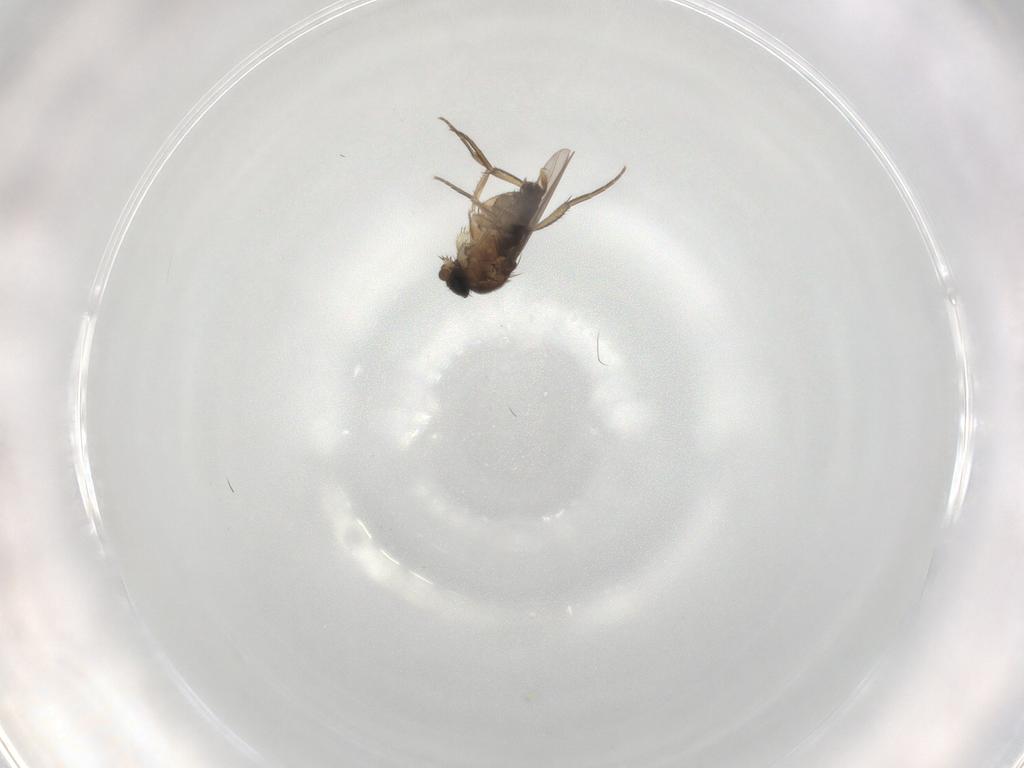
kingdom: Animalia
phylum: Arthropoda
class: Insecta
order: Diptera
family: Phoridae
